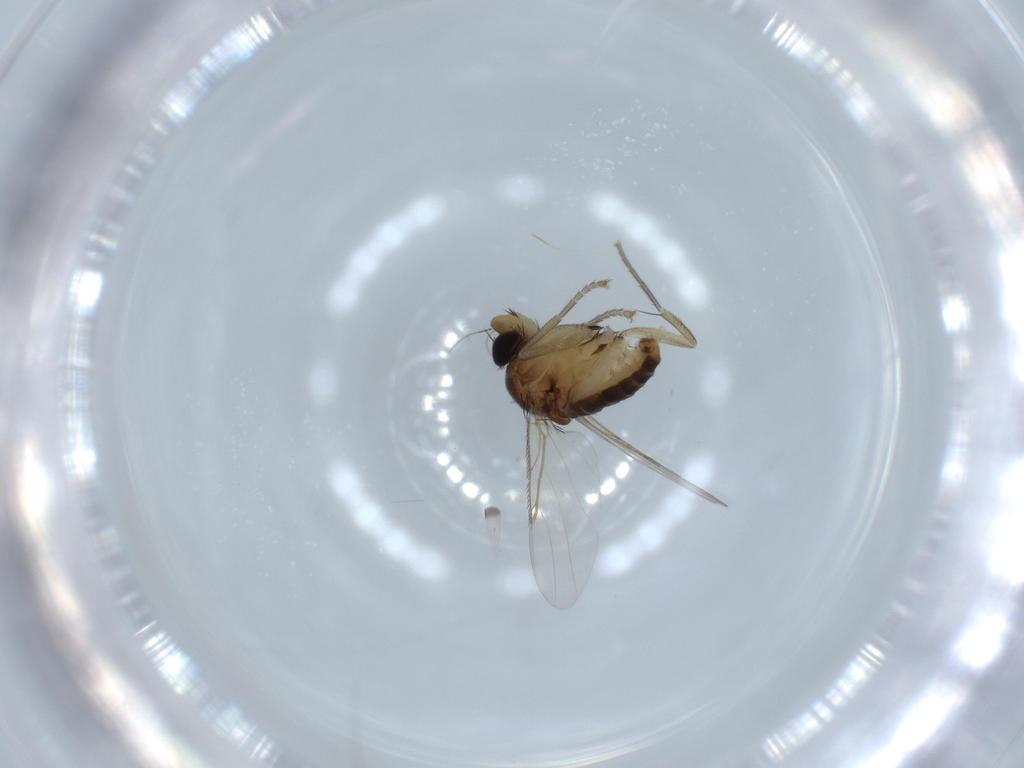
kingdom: Animalia
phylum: Arthropoda
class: Insecta
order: Diptera
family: Phoridae
